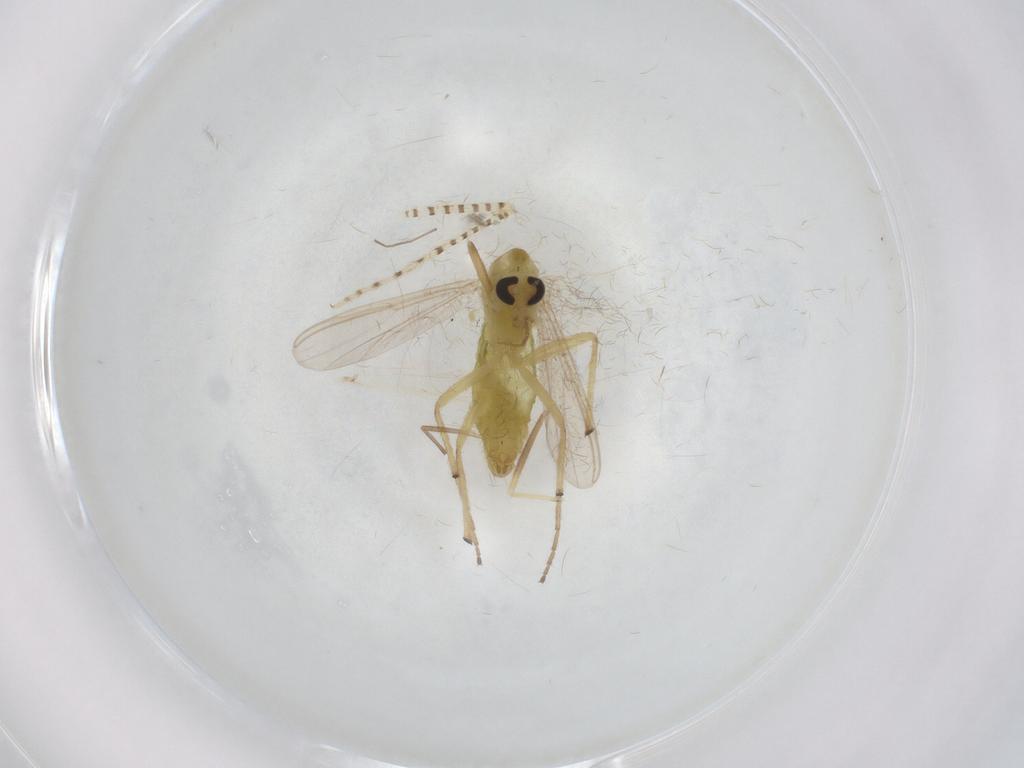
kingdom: Animalia
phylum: Arthropoda
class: Insecta
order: Diptera
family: Chironomidae
